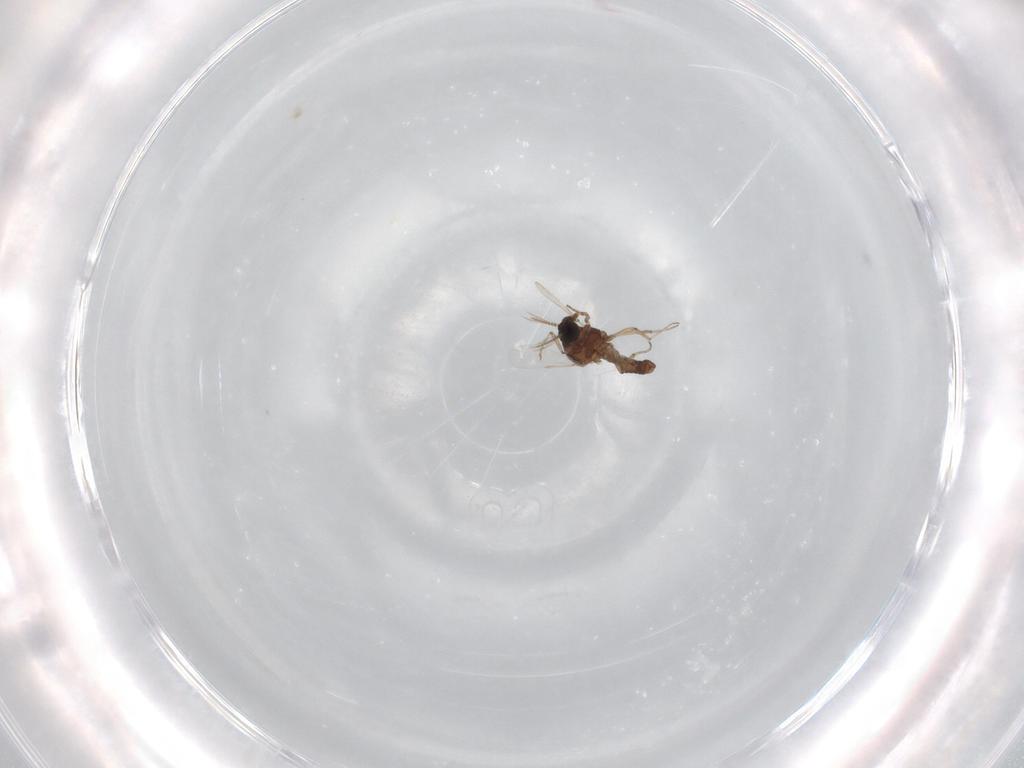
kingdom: Animalia
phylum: Arthropoda
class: Insecta
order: Diptera
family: Ceratopogonidae
